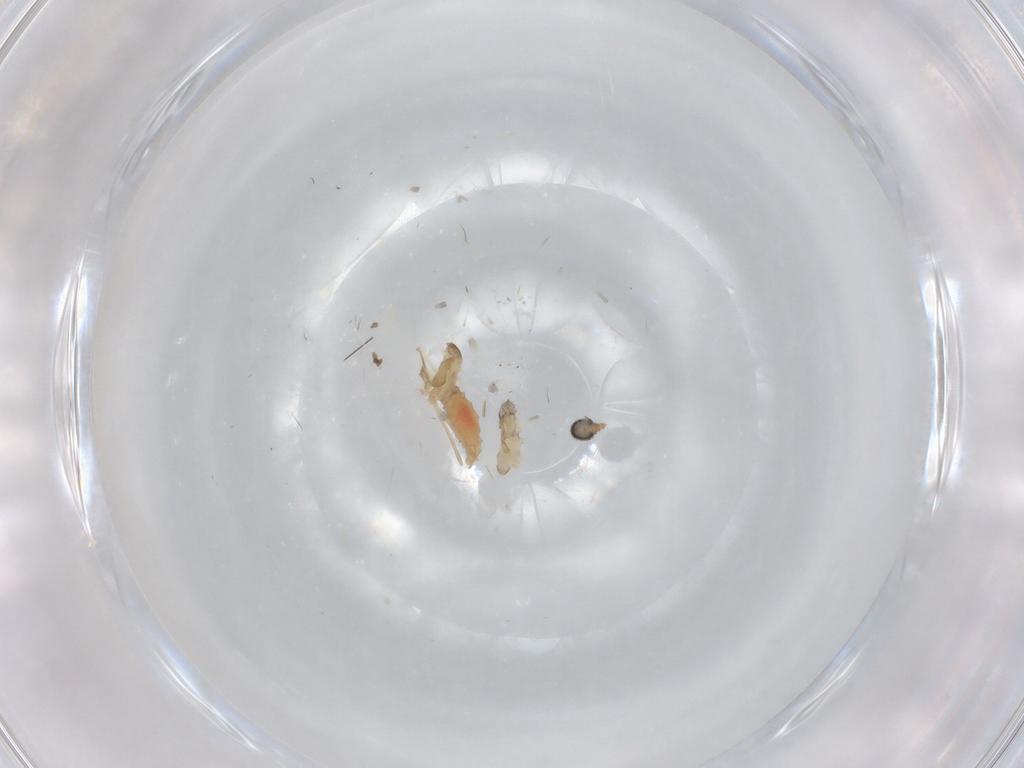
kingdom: Animalia
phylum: Arthropoda
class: Insecta
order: Diptera
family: Cecidomyiidae
